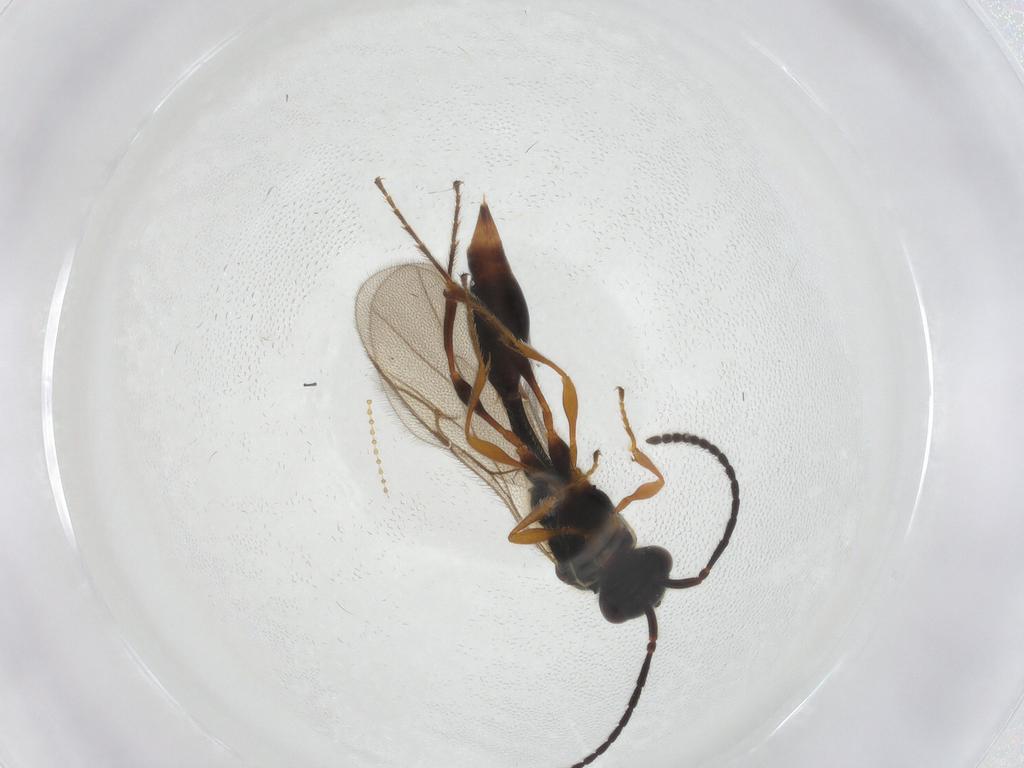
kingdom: Animalia
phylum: Arthropoda
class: Insecta
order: Hymenoptera
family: Diapriidae
